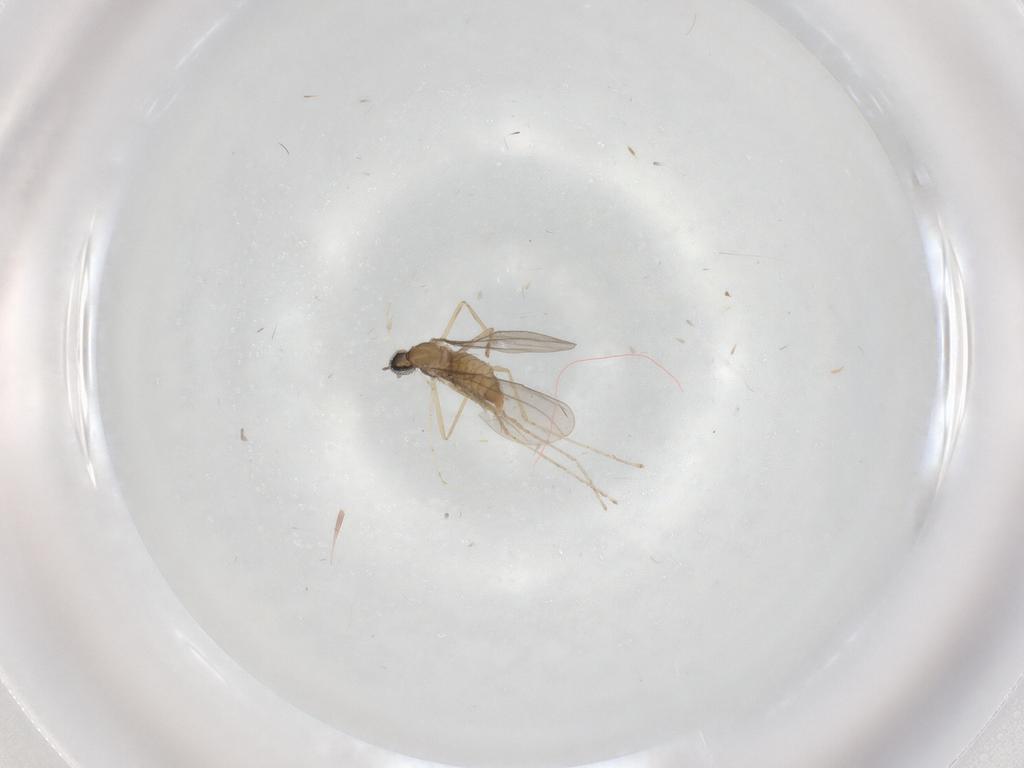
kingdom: Animalia
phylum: Arthropoda
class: Insecta
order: Diptera
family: Cecidomyiidae
